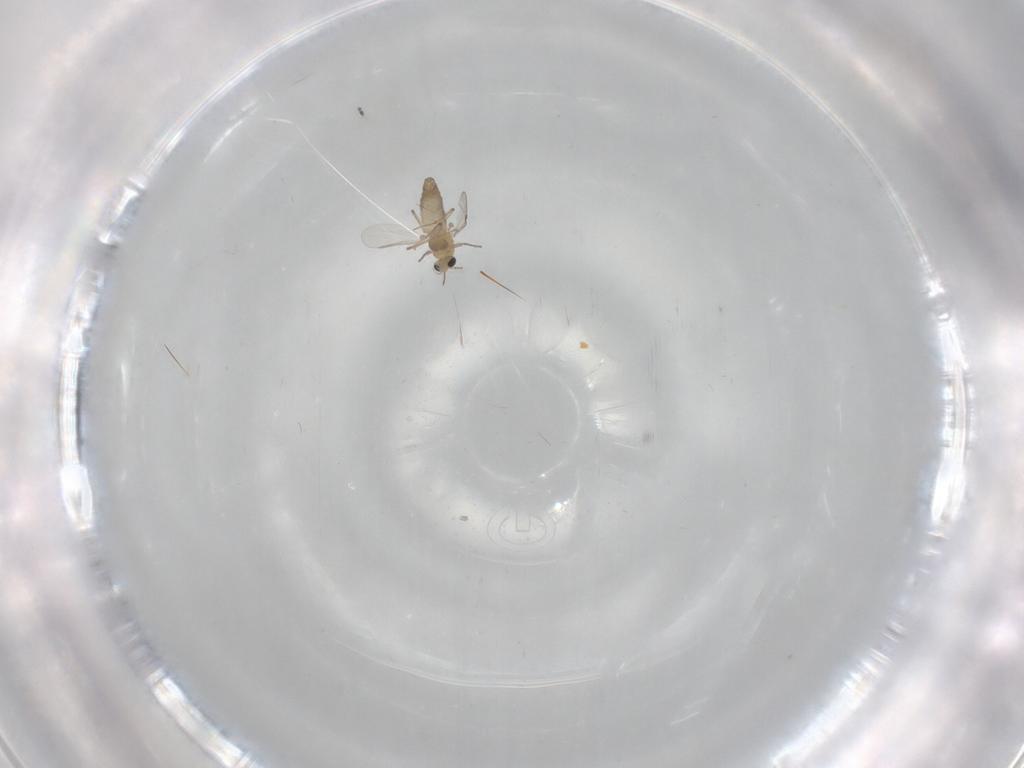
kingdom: Animalia
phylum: Arthropoda
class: Insecta
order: Diptera
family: Chironomidae
